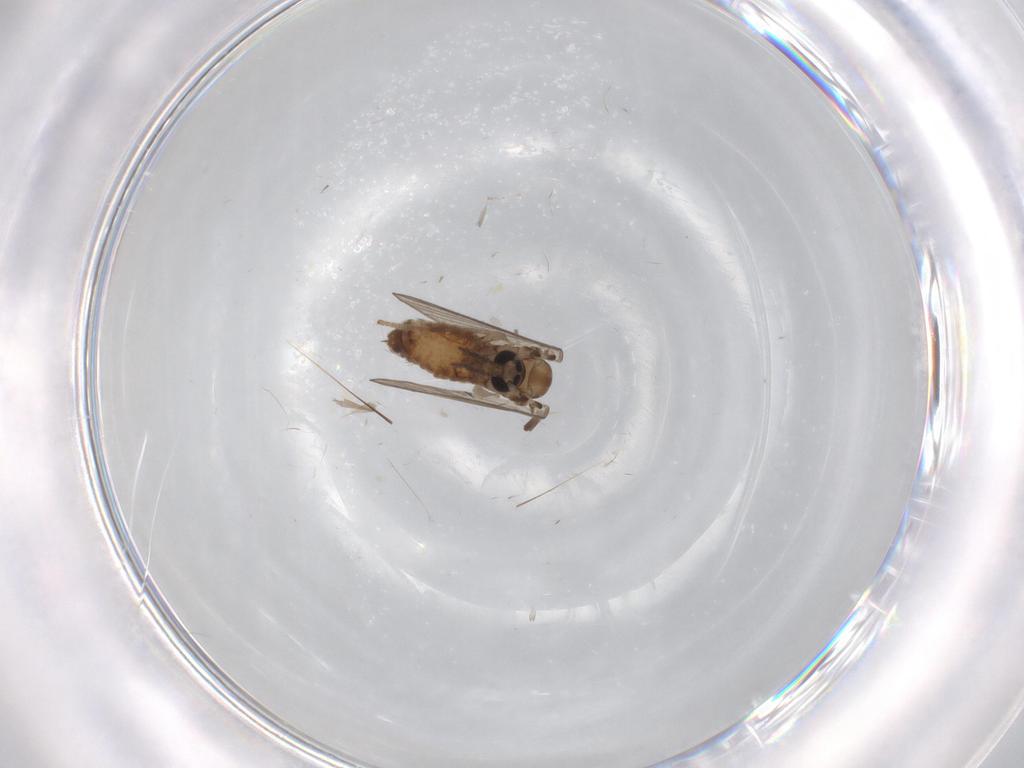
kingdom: Animalia
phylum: Arthropoda
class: Insecta
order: Diptera
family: Psychodidae
